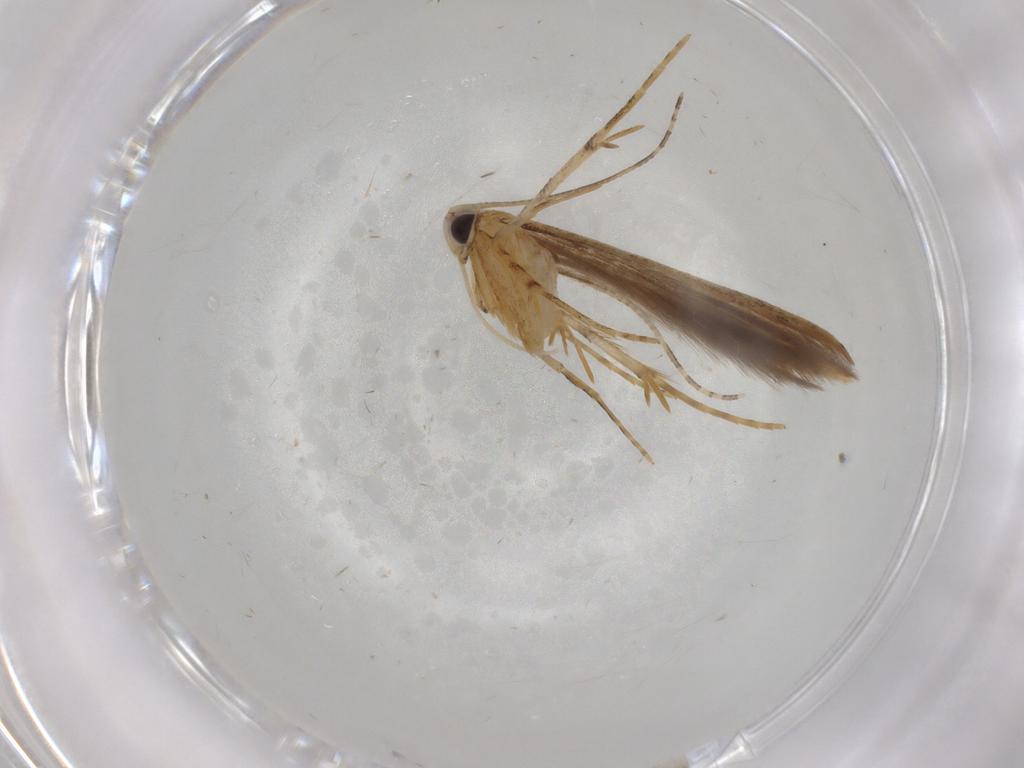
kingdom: Animalia
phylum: Arthropoda
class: Insecta
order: Lepidoptera
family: Batrachedridae
